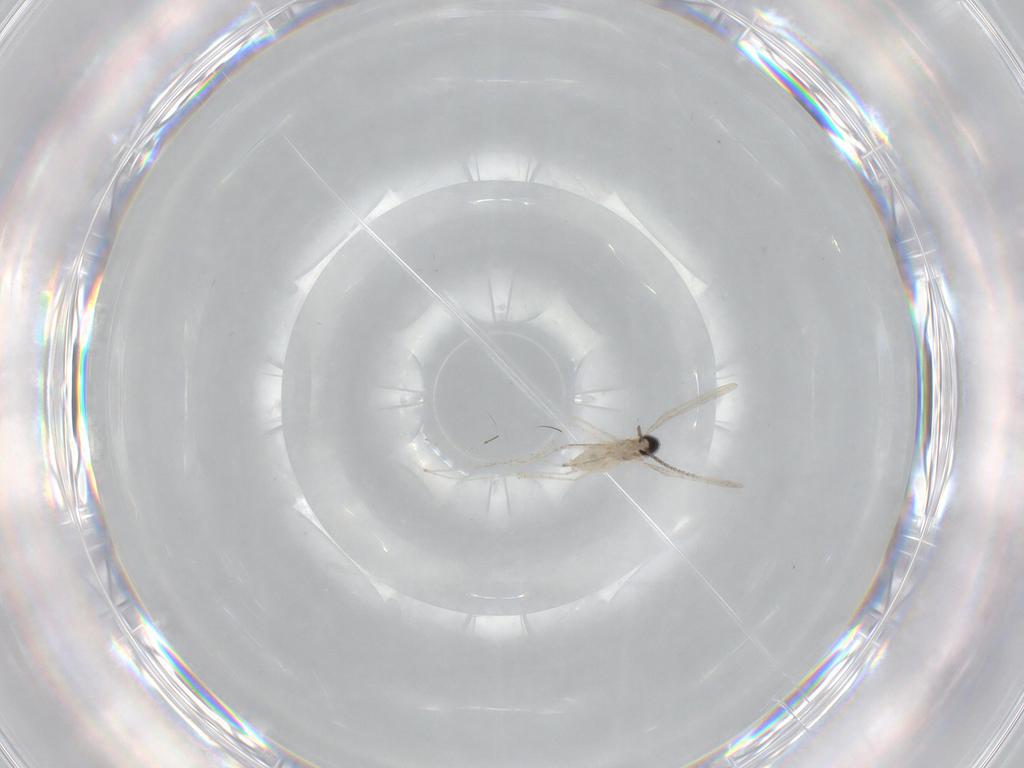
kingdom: Animalia
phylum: Arthropoda
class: Insecta
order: Diptera
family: Cecidomyiidae
